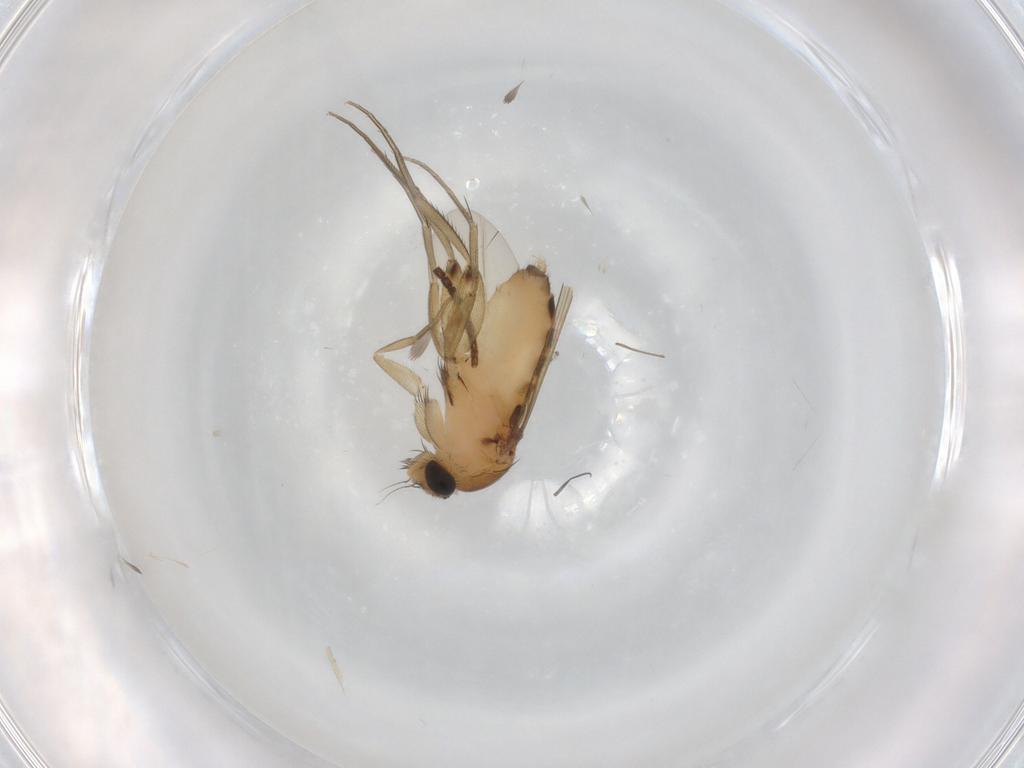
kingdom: Animalia
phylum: Arthropoda
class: Insecta
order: Diptera
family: Phoridae
